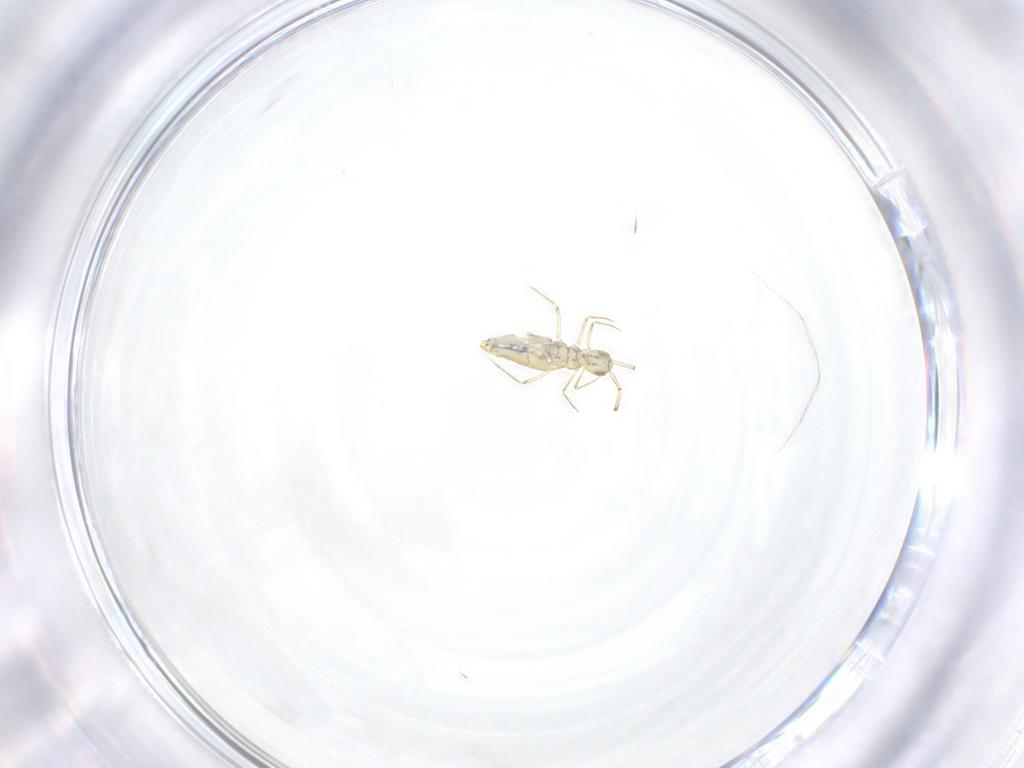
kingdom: Animalia
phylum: Arthropoda
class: Collembola
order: Entomobryomorpha
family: Entomobryidae
